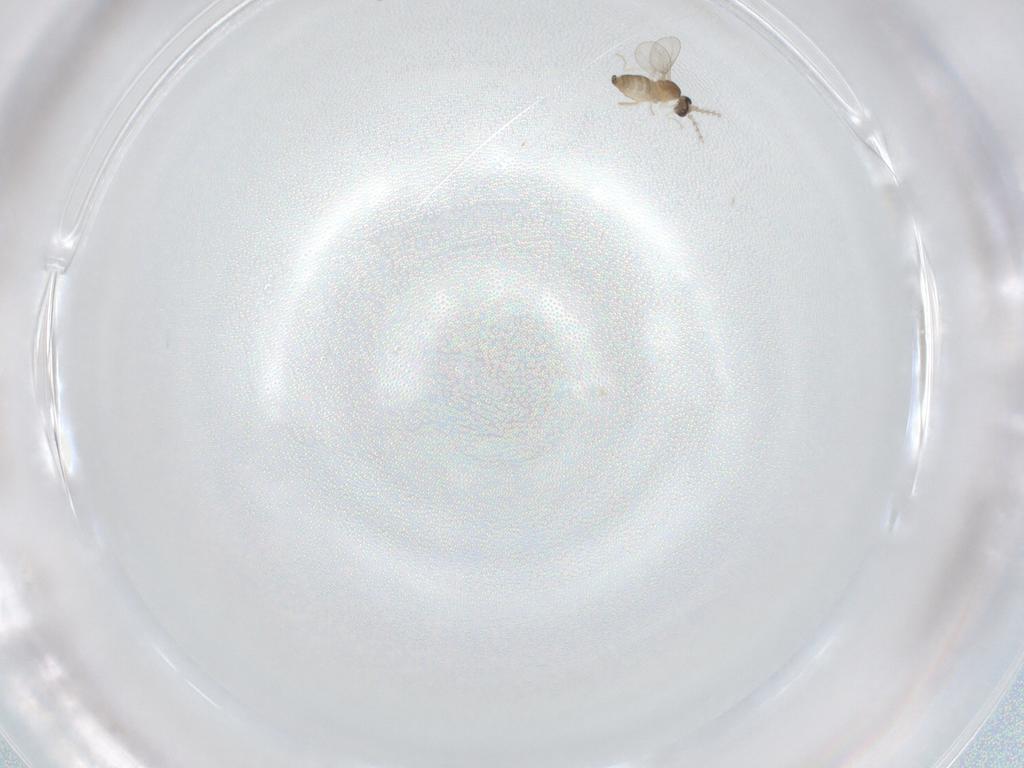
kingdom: Animalia
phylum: Arthropoda
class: Insecta
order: Diptera
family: Cecidomyiidae
